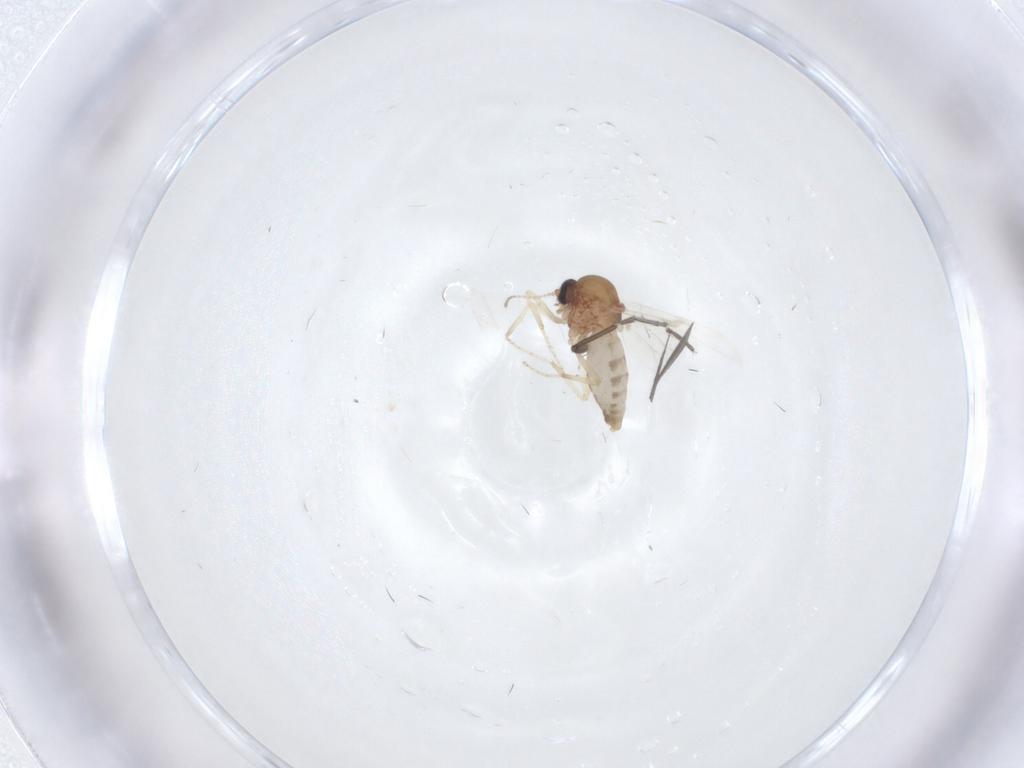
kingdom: Animalia
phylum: Arthropoda
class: Insecta
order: Diptera
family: Ceratopogonidae
